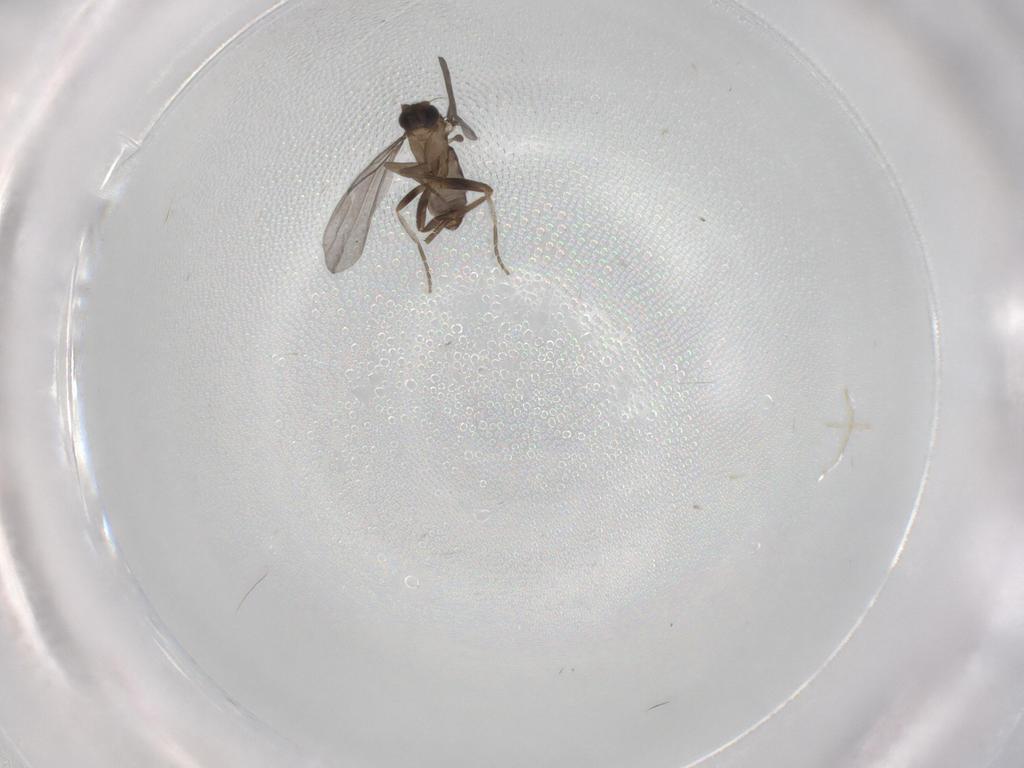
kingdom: Animalia
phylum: Arthropoda
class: Insecta
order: Diptera
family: Phoridae
